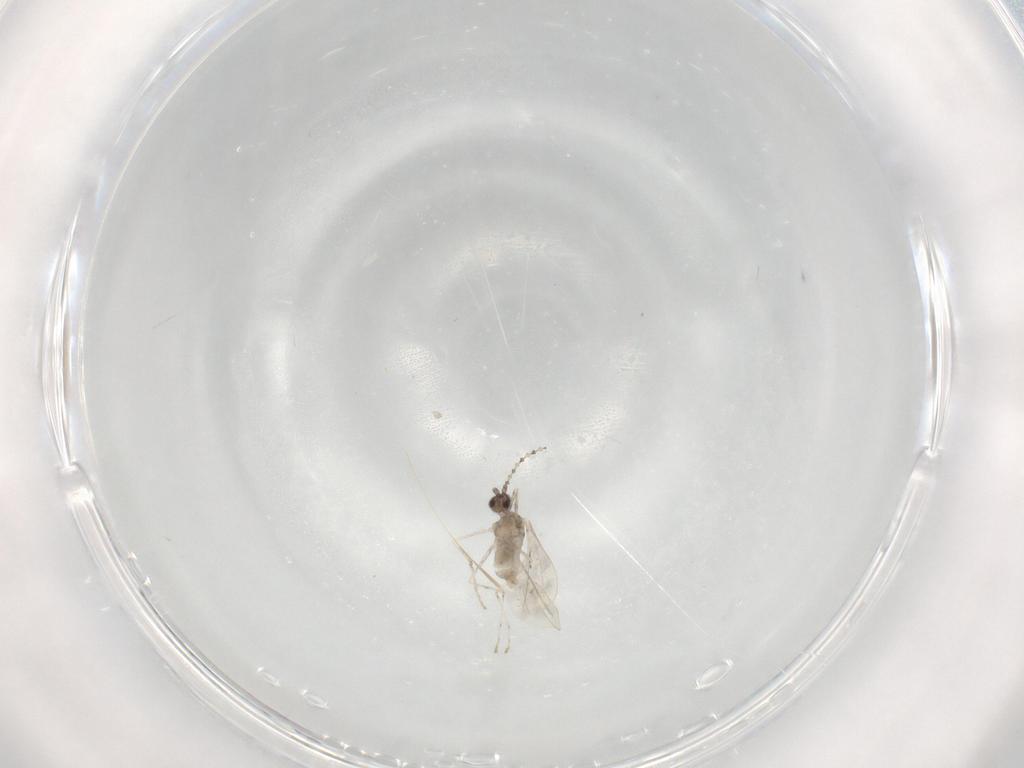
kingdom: Animalia
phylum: Arthropoda
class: Insecta
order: Diptera
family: Cecidomyiidae
